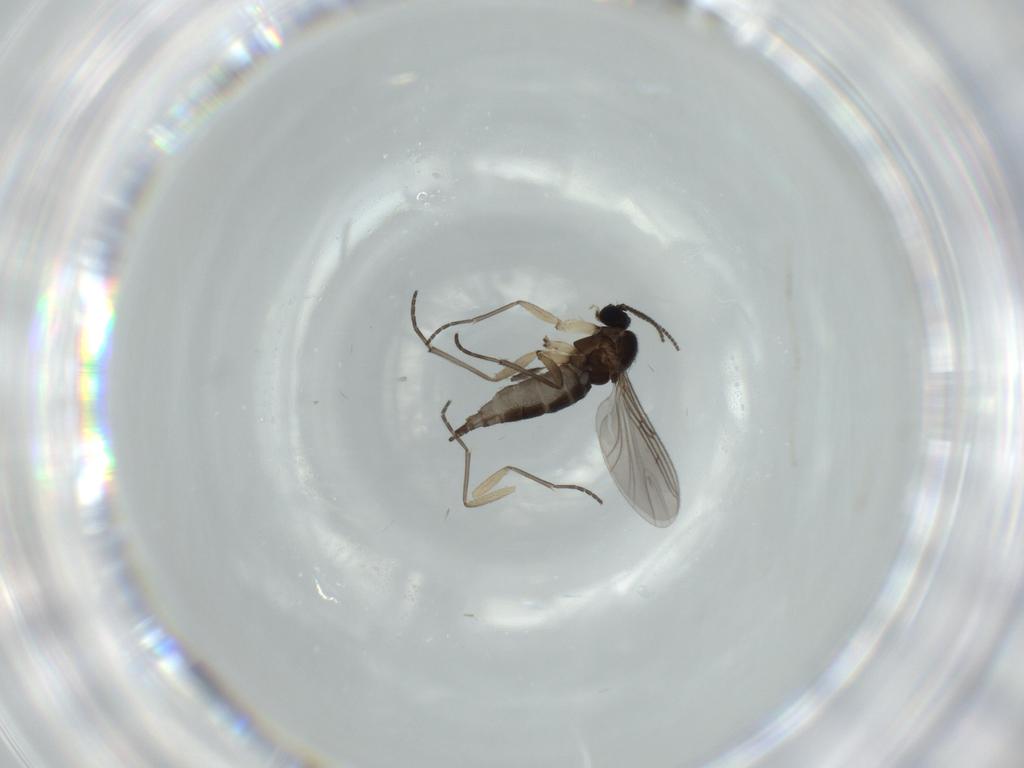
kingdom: Animalia
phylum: Arthropoda
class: Insecta
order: Diptera
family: Sciaridae
